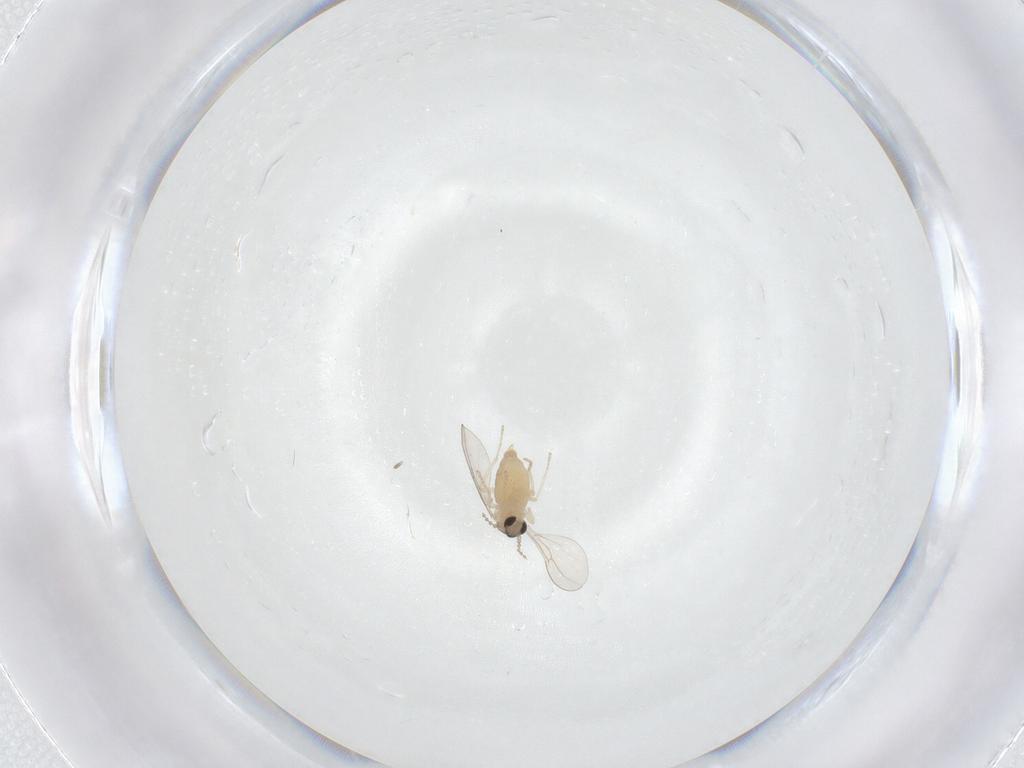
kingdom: Animalia
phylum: Arthropoda
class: Insecta
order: Diptera
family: Cecidomyiidae
